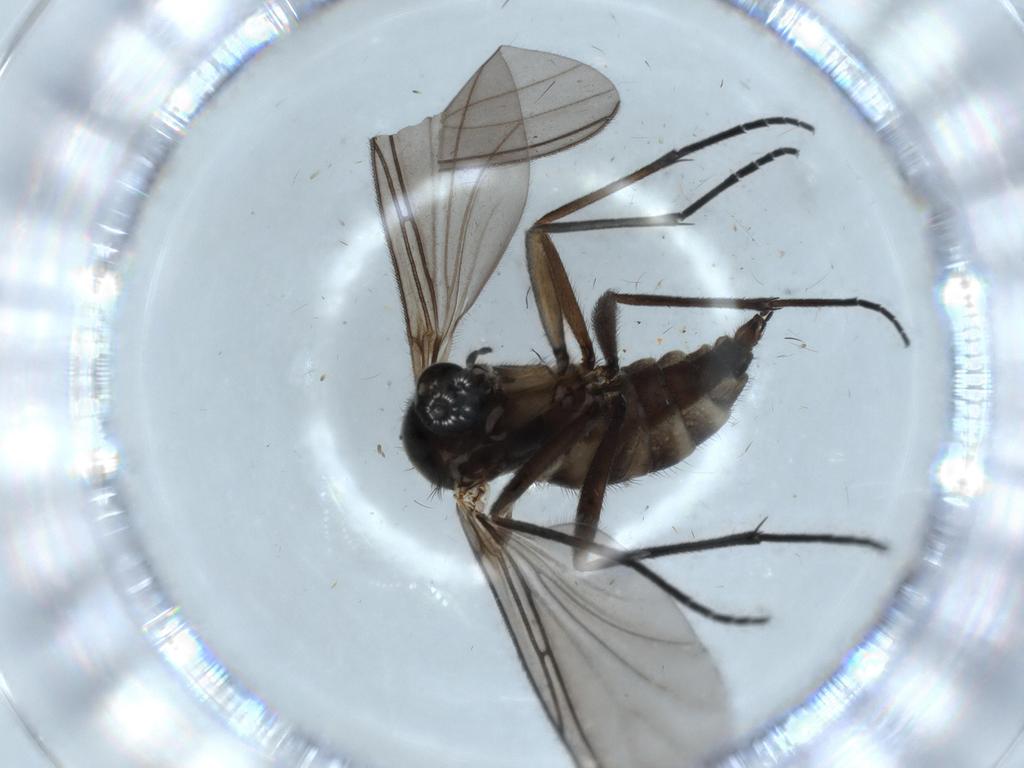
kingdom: Animalia
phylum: Arthropoda
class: Insecta
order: Diptera
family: Sciaridae
